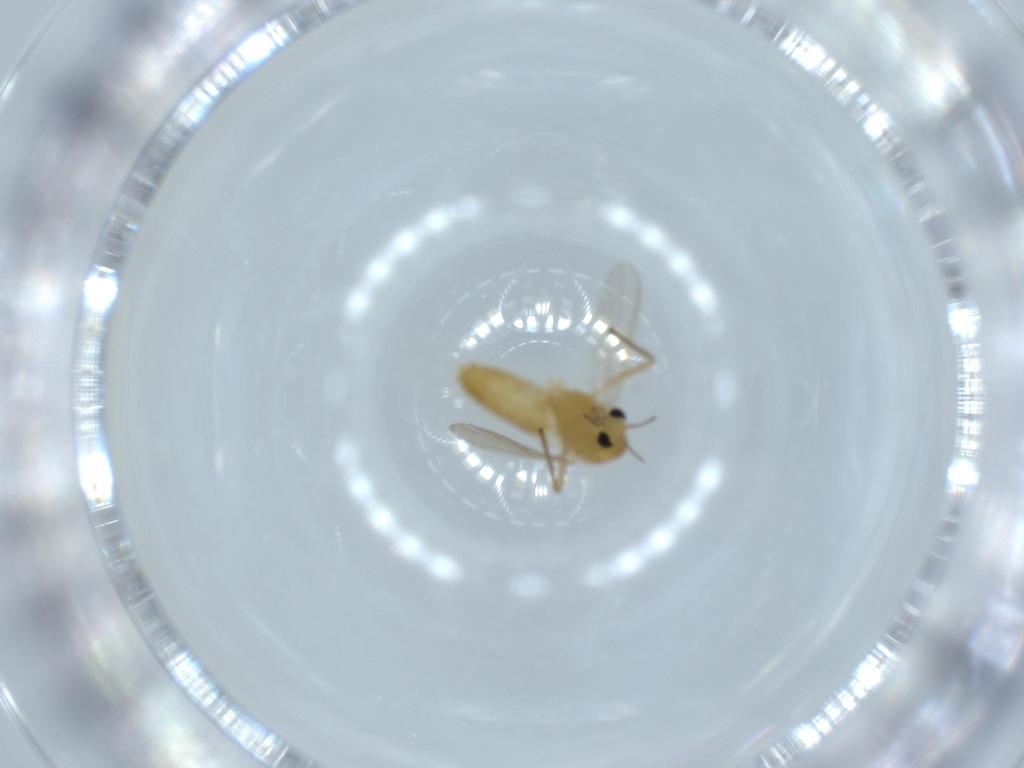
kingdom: Animalia
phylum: Arthropoda
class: Insecta
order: Diptera
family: Chironomidae
